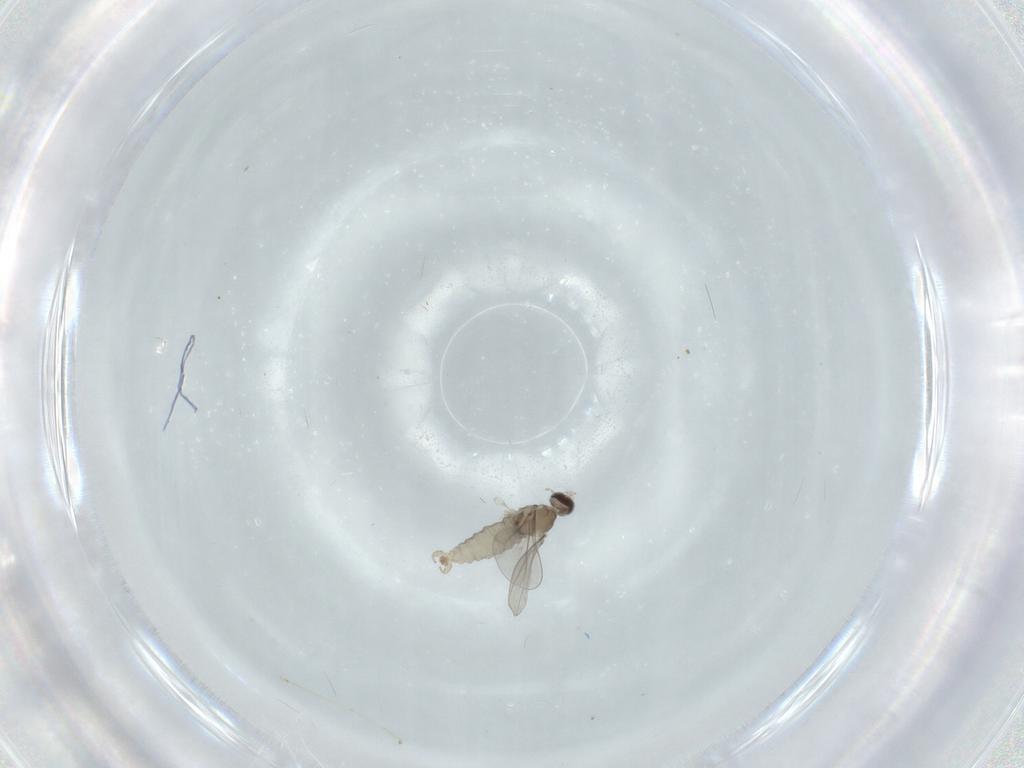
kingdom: Animalia
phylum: Arthropoda
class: Insecta
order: Diptera
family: Cecidomyiidae
